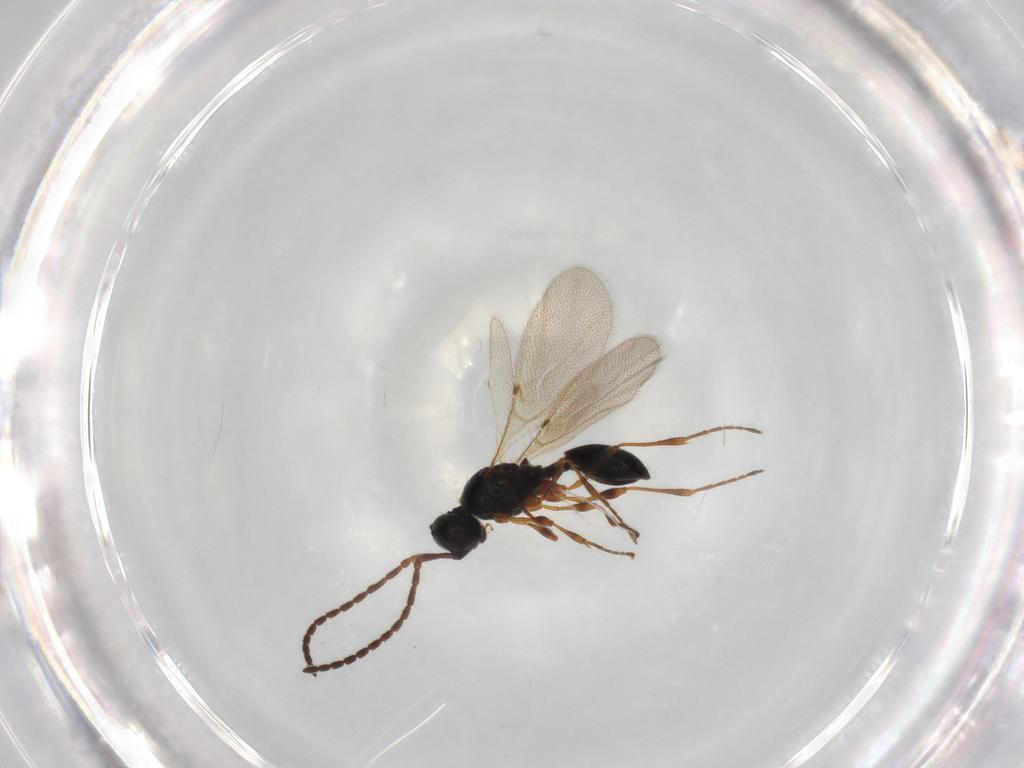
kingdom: Animalia
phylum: Arthropoda
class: Insecta
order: Hymenoptera
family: Diapriidae
